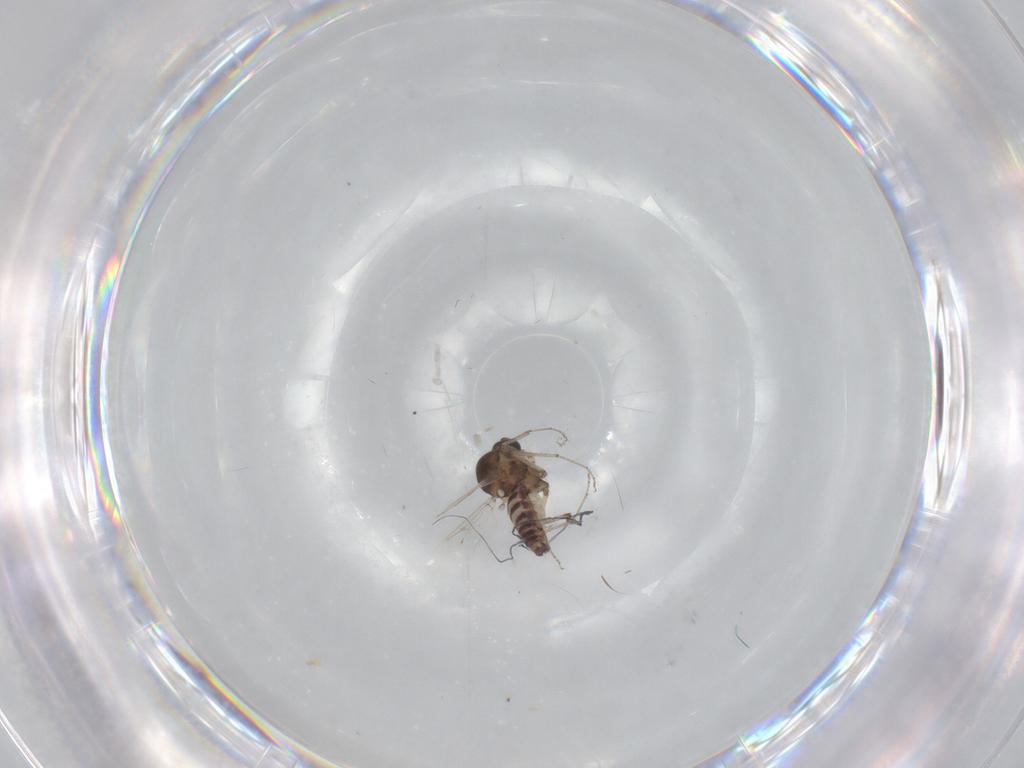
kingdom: Animalia
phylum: Arthropoda
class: Insecta
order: Diptera
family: Ceratopogonidae
